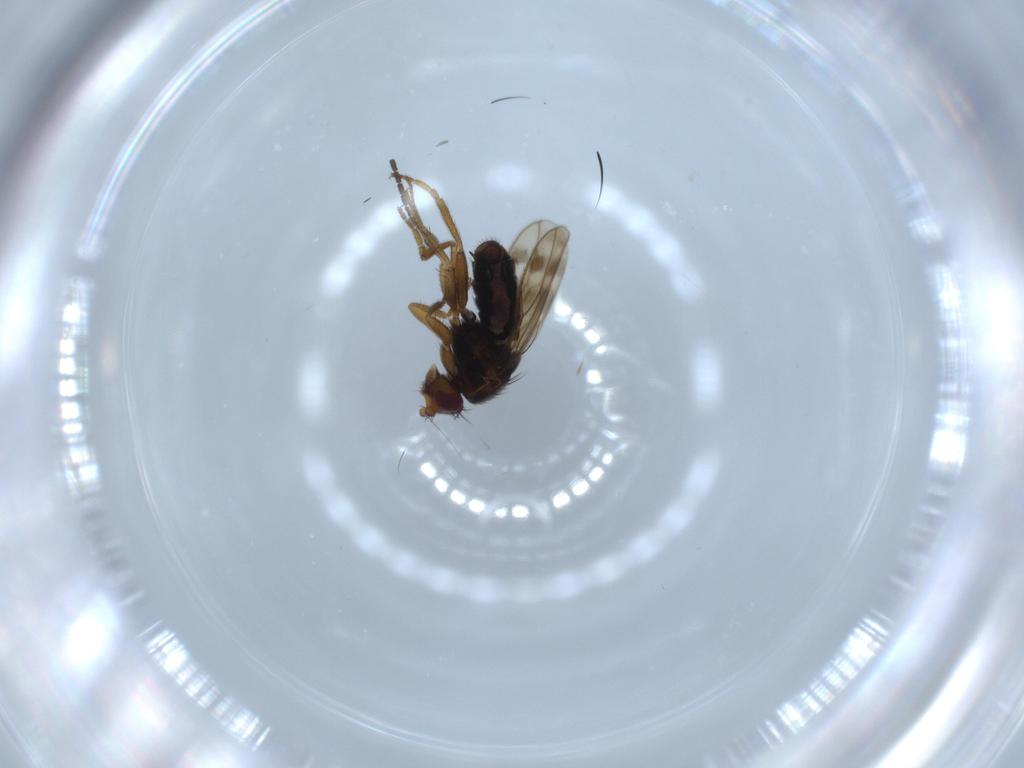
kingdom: Animalia
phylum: Arthropoda
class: Insecta
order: Diptera
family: Sphaeroceridae
